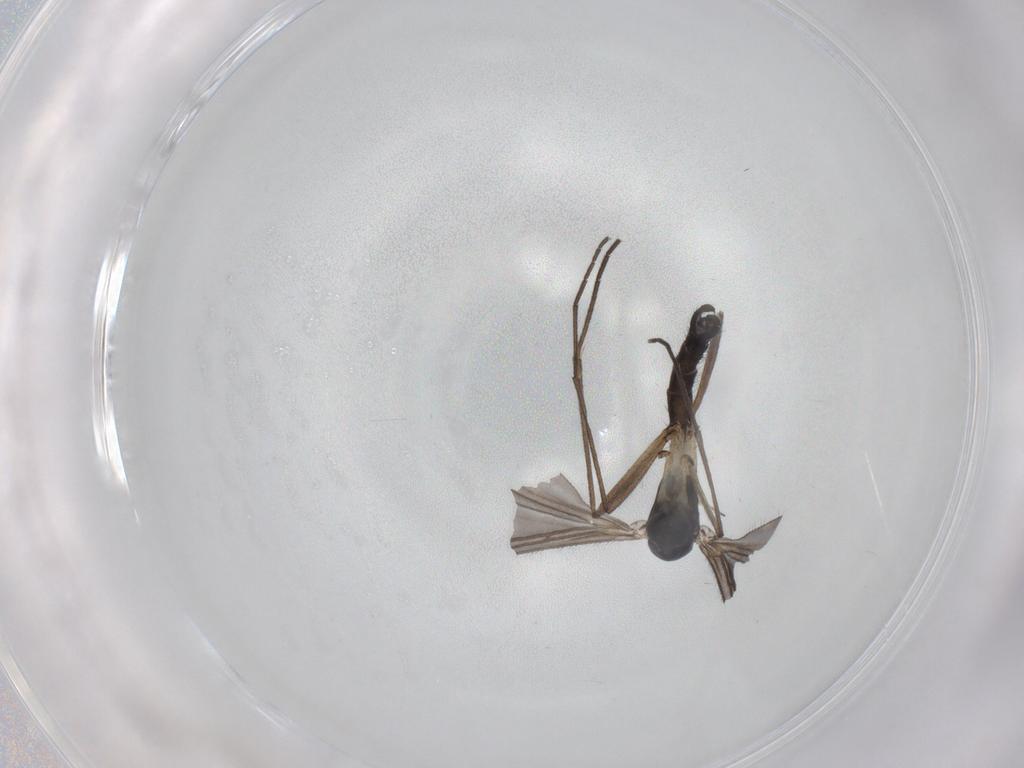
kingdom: Animalia
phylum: Arthropoda
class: Insecta
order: Diptera
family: Sciaridae
